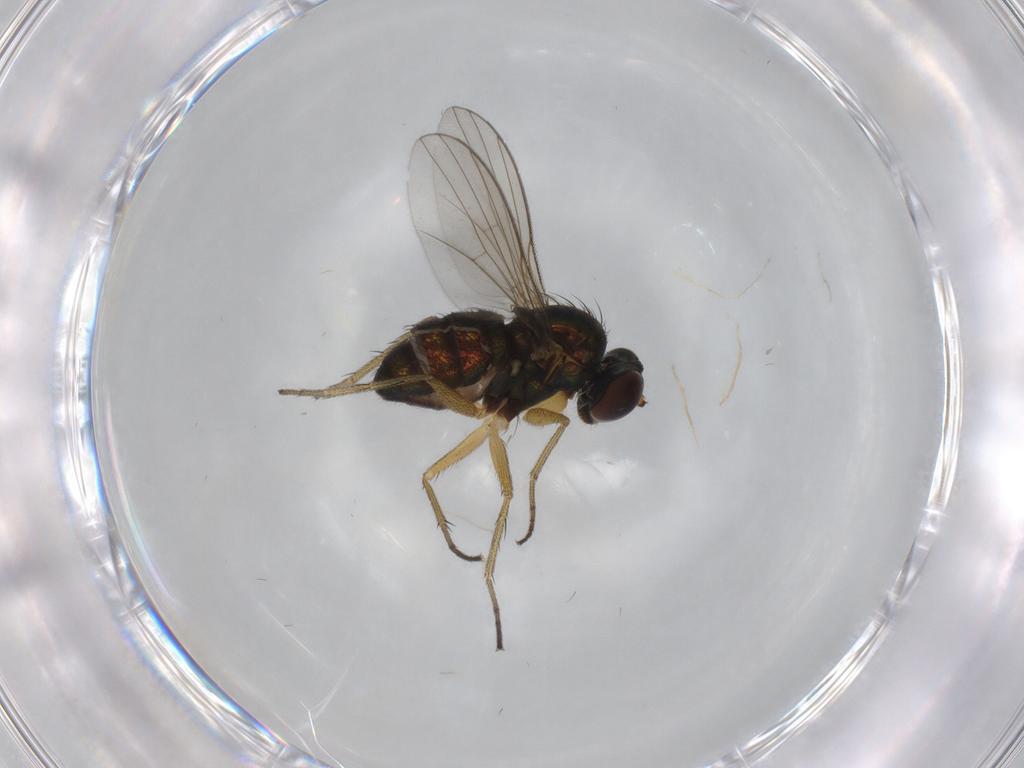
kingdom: Animalia
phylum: Arthropoda
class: Insecta
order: Diptera
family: Dolichopodidae
